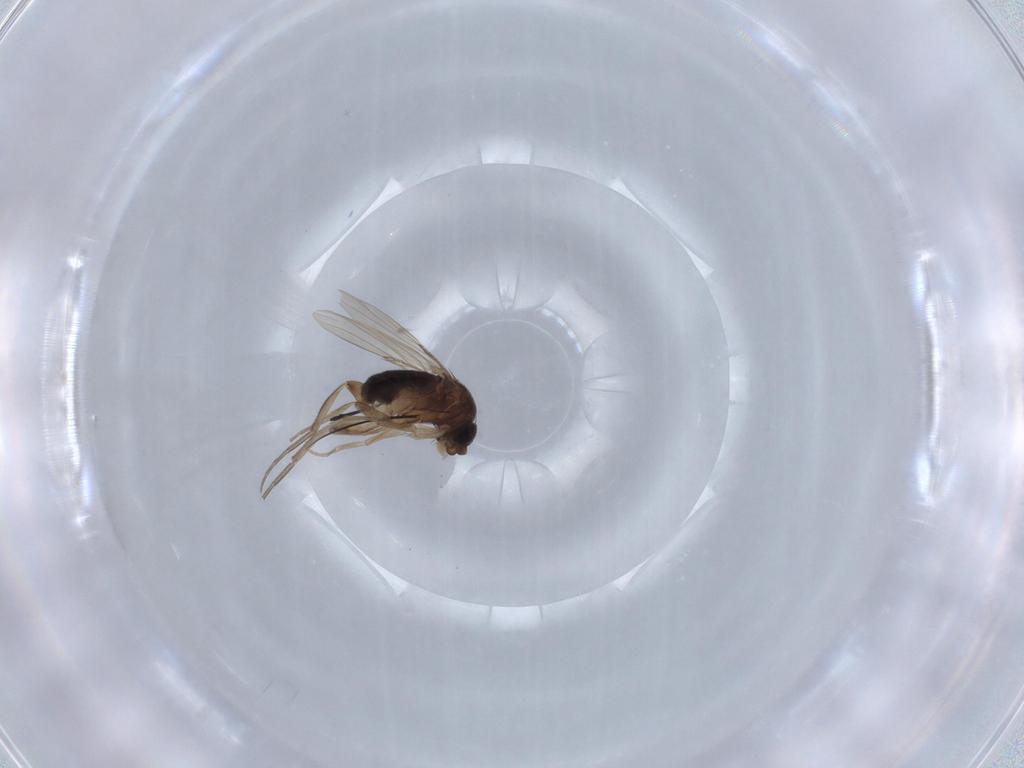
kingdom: Animalia
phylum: Arthropoda
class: Insecta
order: Diptera
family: Phoridae
